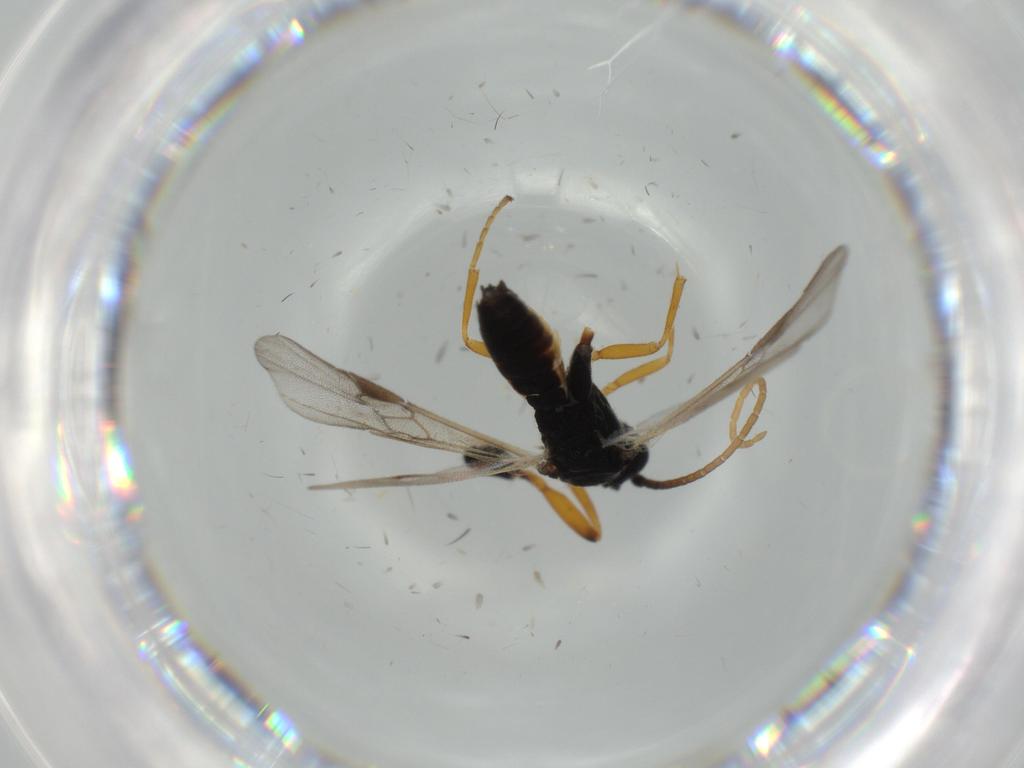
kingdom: Animalia
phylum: Arthropoda
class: Insecta
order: Hymenoptera
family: Braconidae
